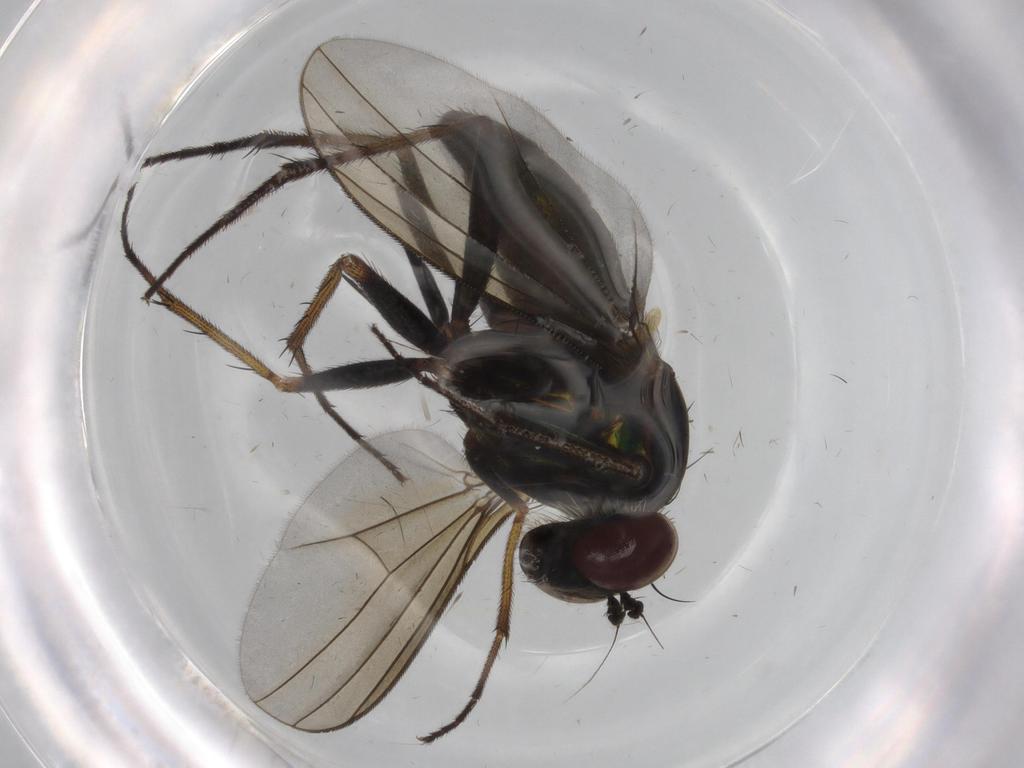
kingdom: Animalia
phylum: Arthropoda
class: Insecta
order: Diptera
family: Dolichopodidae
